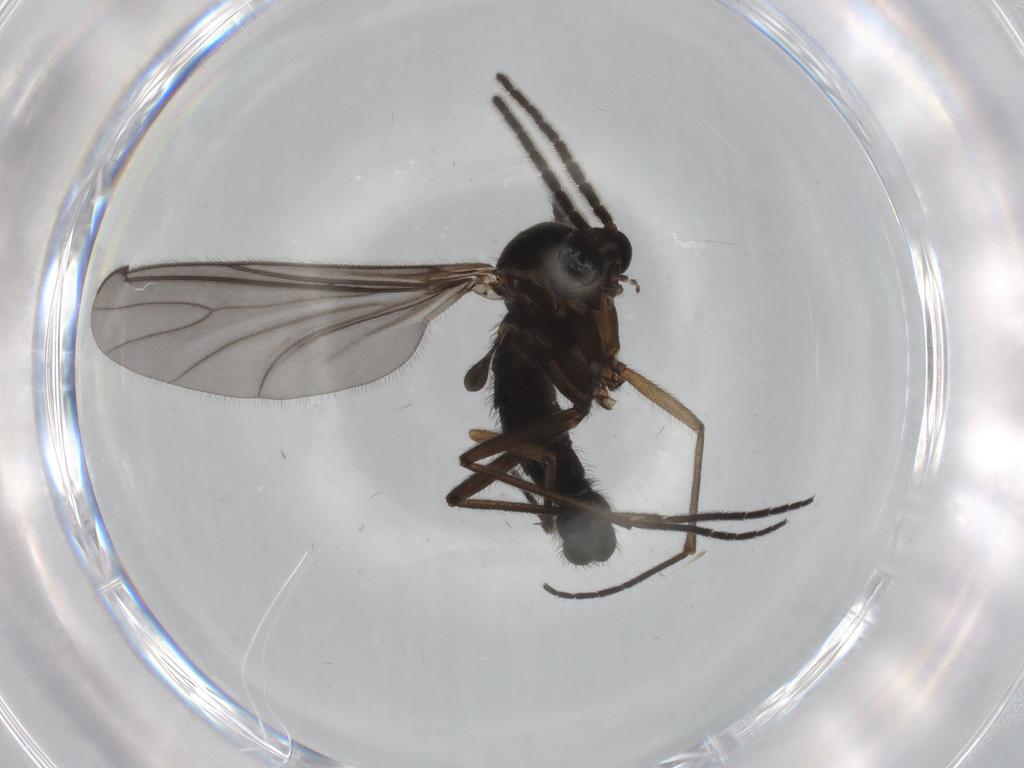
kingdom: Animalia
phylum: Arthropoda
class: Insecta
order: Diptera
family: Sciaridae
